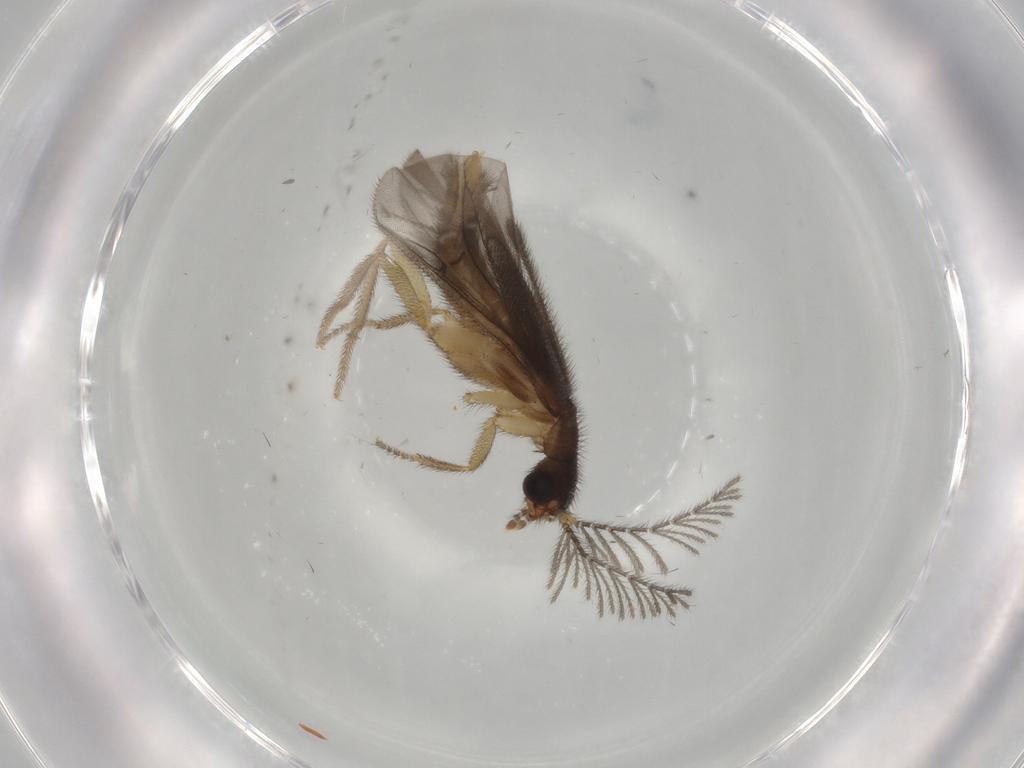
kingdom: Animalia
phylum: Arthropoda
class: Insecta
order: Coleoptera
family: Phengodidae
